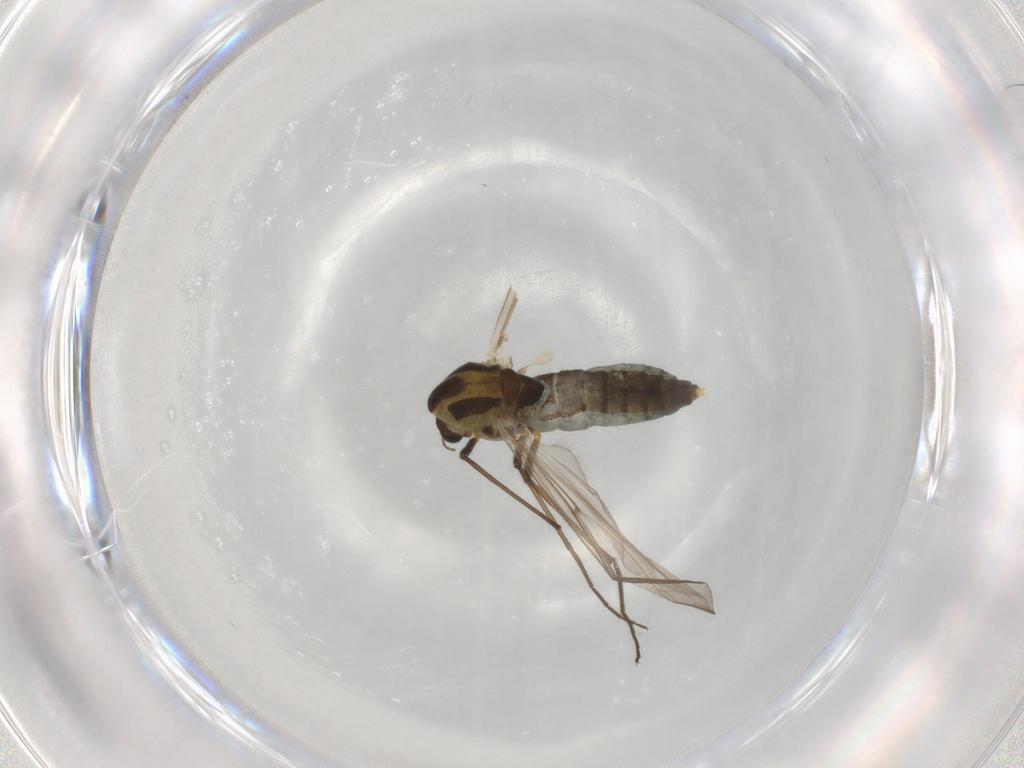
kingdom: Animalia
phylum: Arthropoda
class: Insecta
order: Diptera
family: Chironomidae
